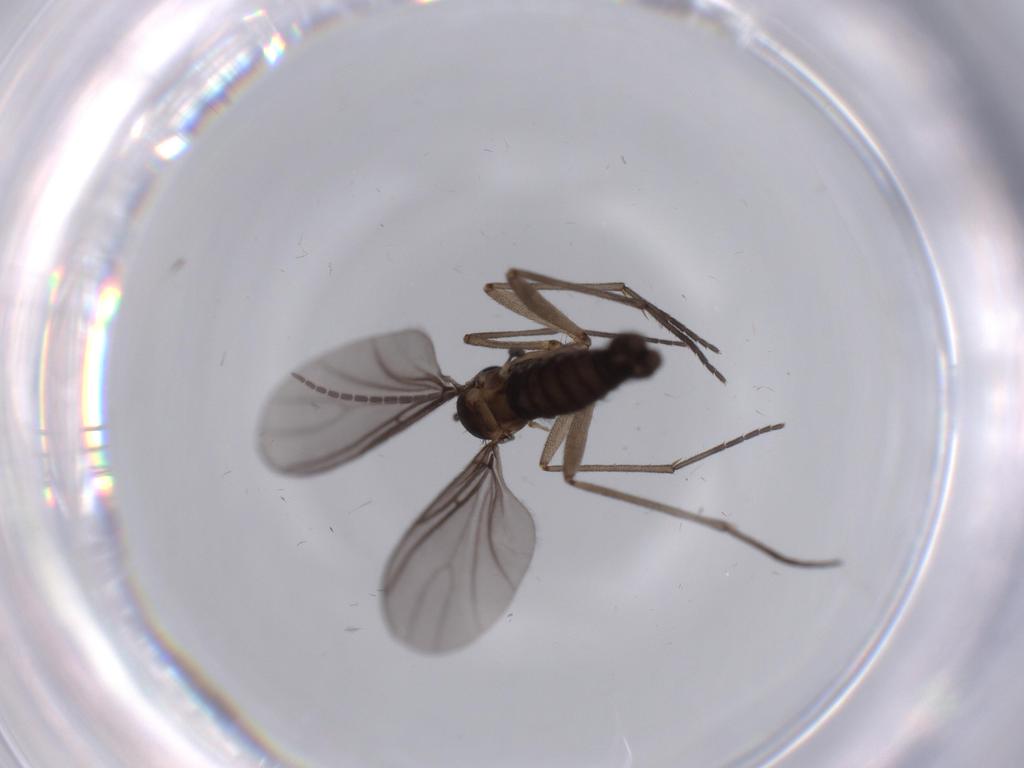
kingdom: Animalia
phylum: Arthropoda
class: Insecta
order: Diptera
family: Sciaridae
